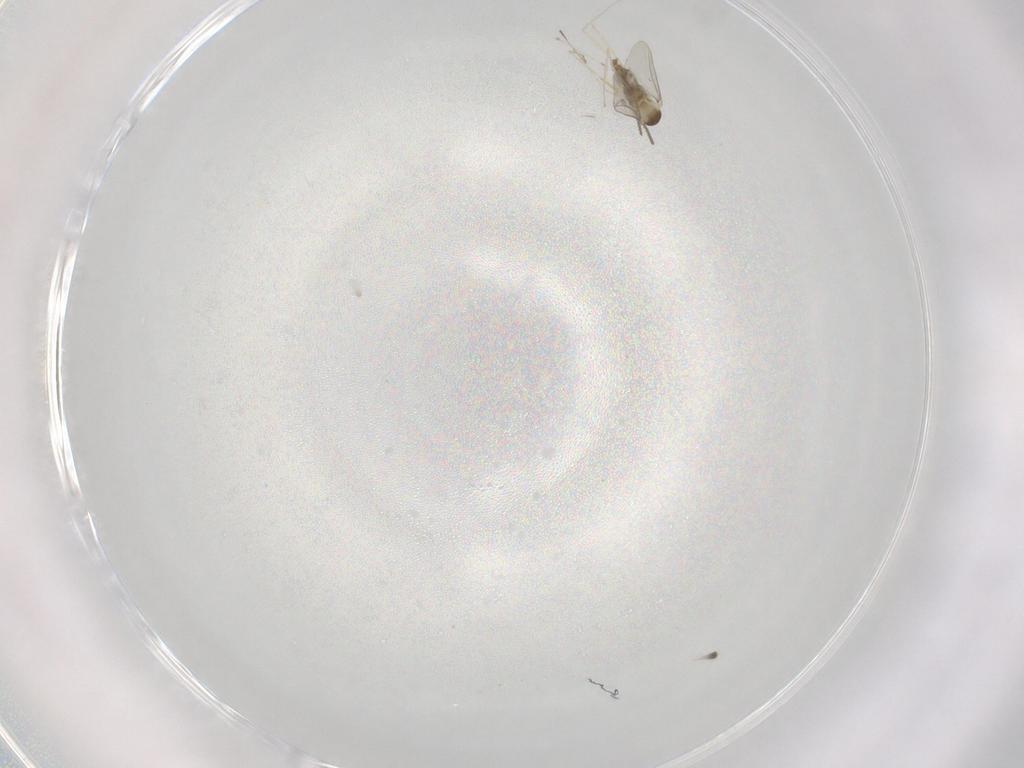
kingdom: Animalia
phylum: Arthropoda
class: Insecta
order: Diptera
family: Cecidomyiidae
